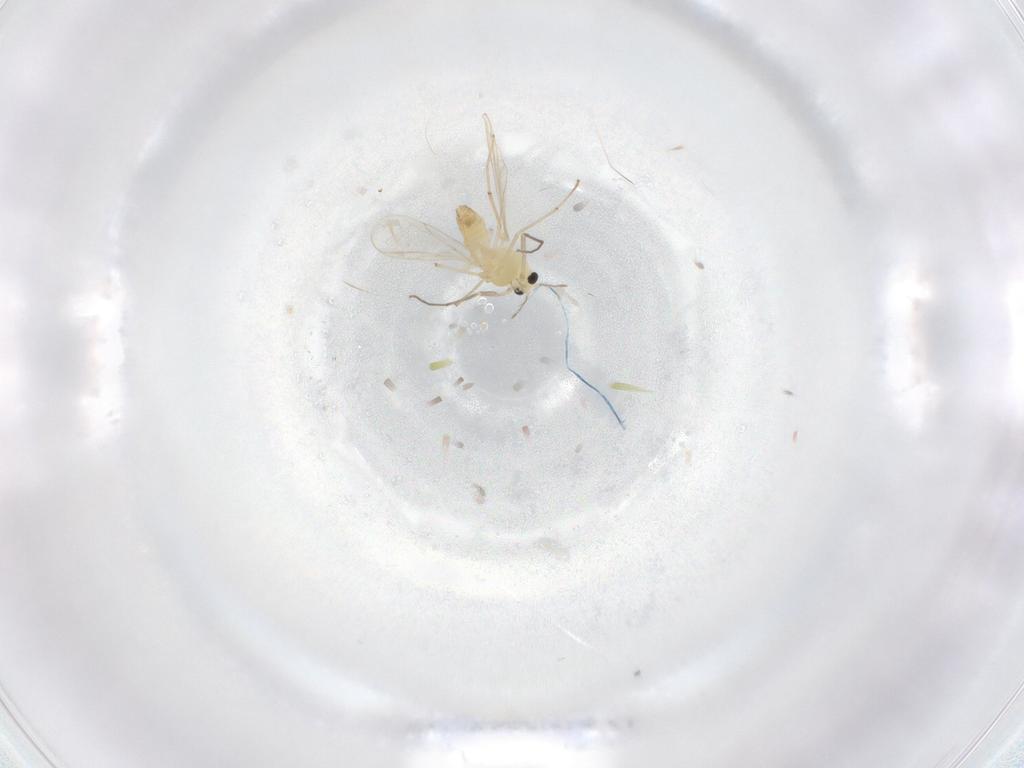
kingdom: Animalia
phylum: Arthropoda
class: Insecta
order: Diptera
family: Chironomidae
